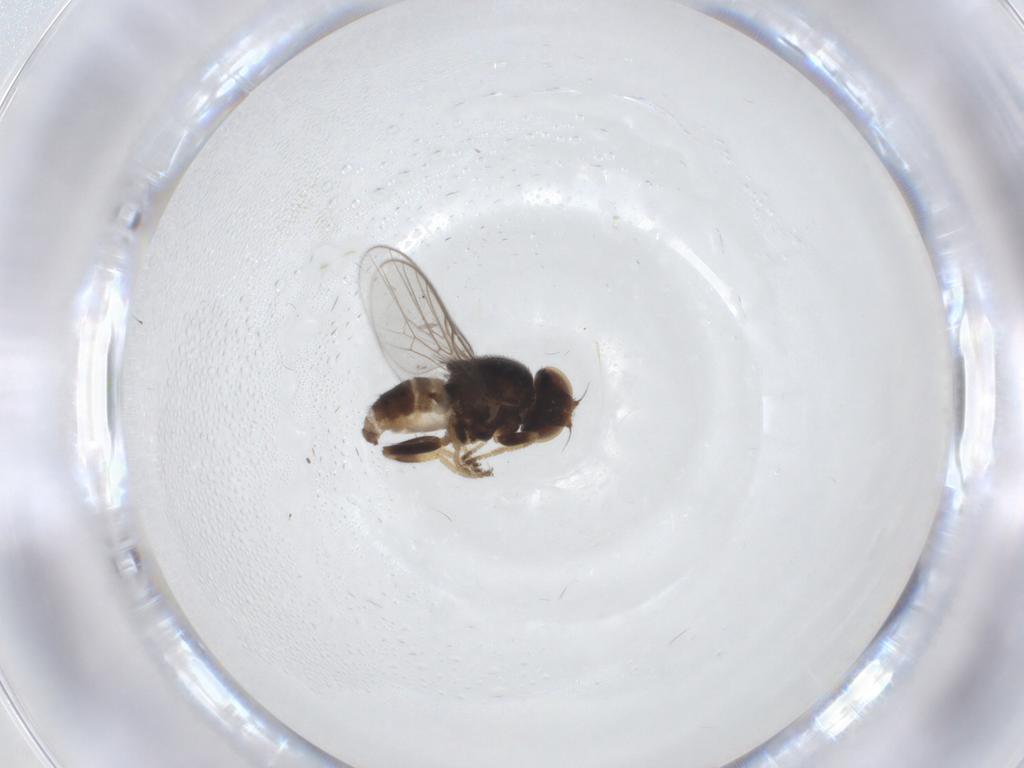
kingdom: Animalia
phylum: Arthropoda
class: Insecta
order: Diptera
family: Chloropidae
